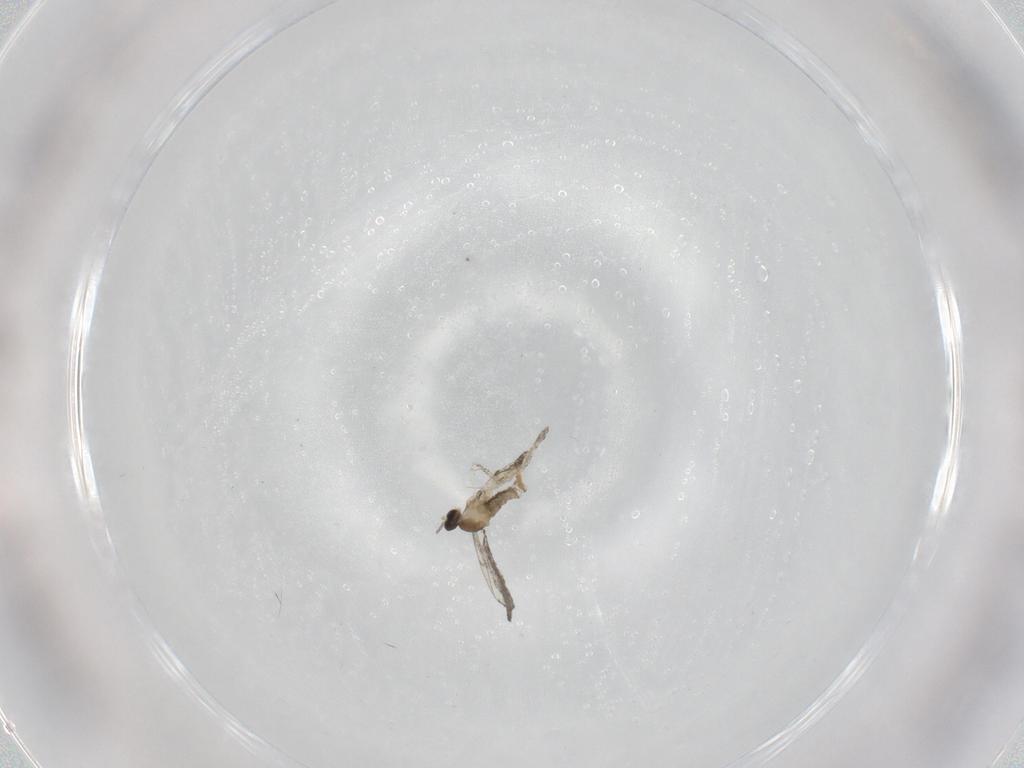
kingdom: Animalia
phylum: Arthropoda
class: Insecta
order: Diptera
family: Cecidomyiidae
